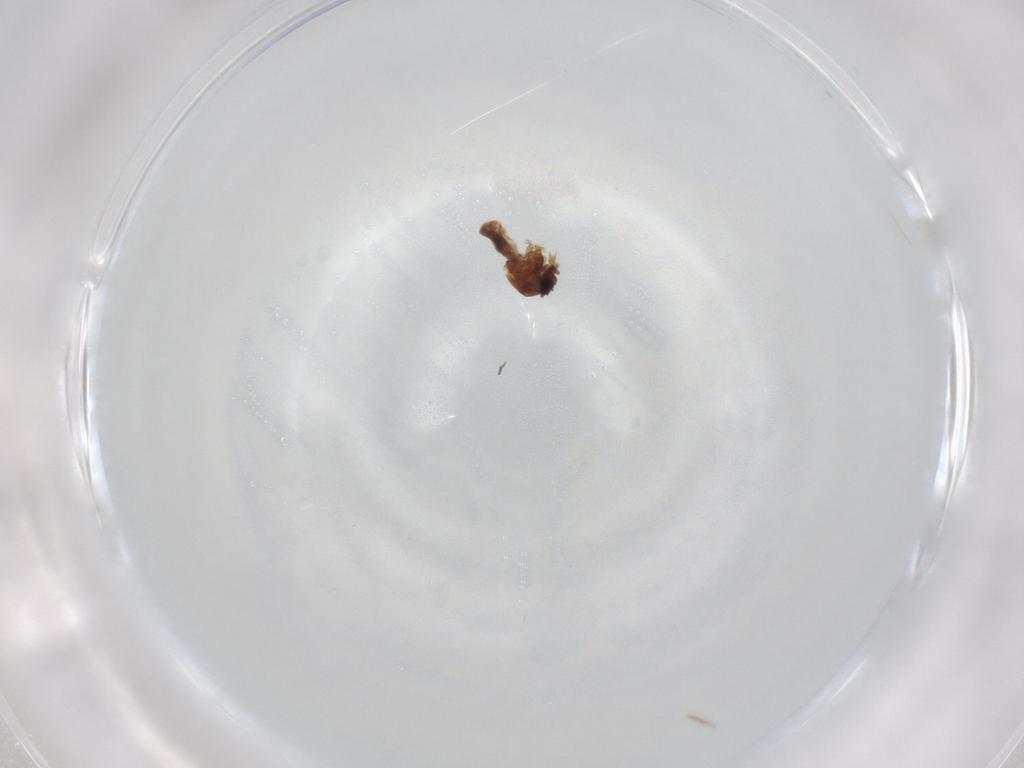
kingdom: Animalia
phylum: Arthropoda
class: Insecta
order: Diptera
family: Ceratopogonidae
